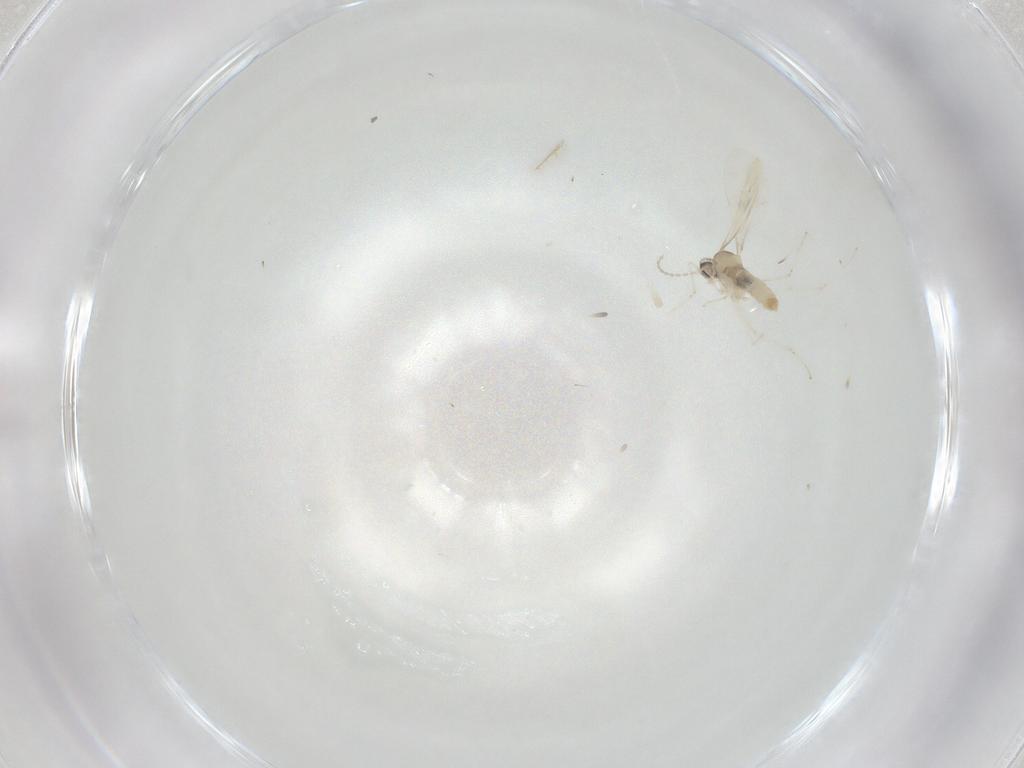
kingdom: Animalia
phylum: Arthropoda
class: Insecta
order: Diptera
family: Cecidomyiidae
